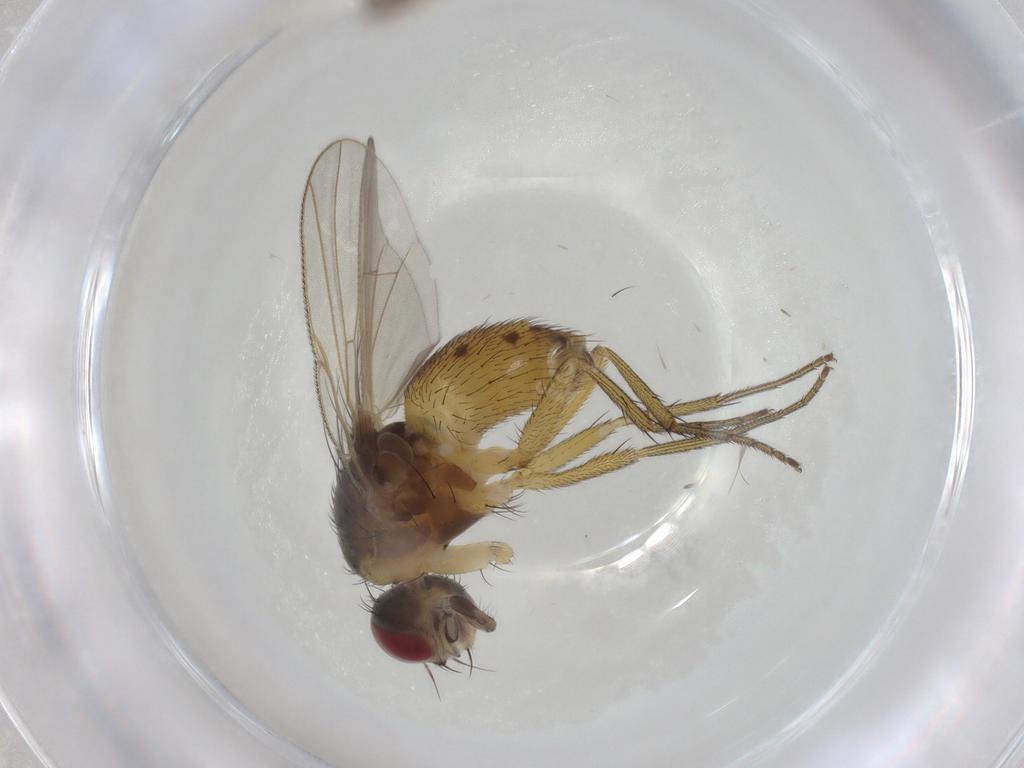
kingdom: Animalia
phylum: Arthropoda
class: Insecta
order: Diptera
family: Muscidae
